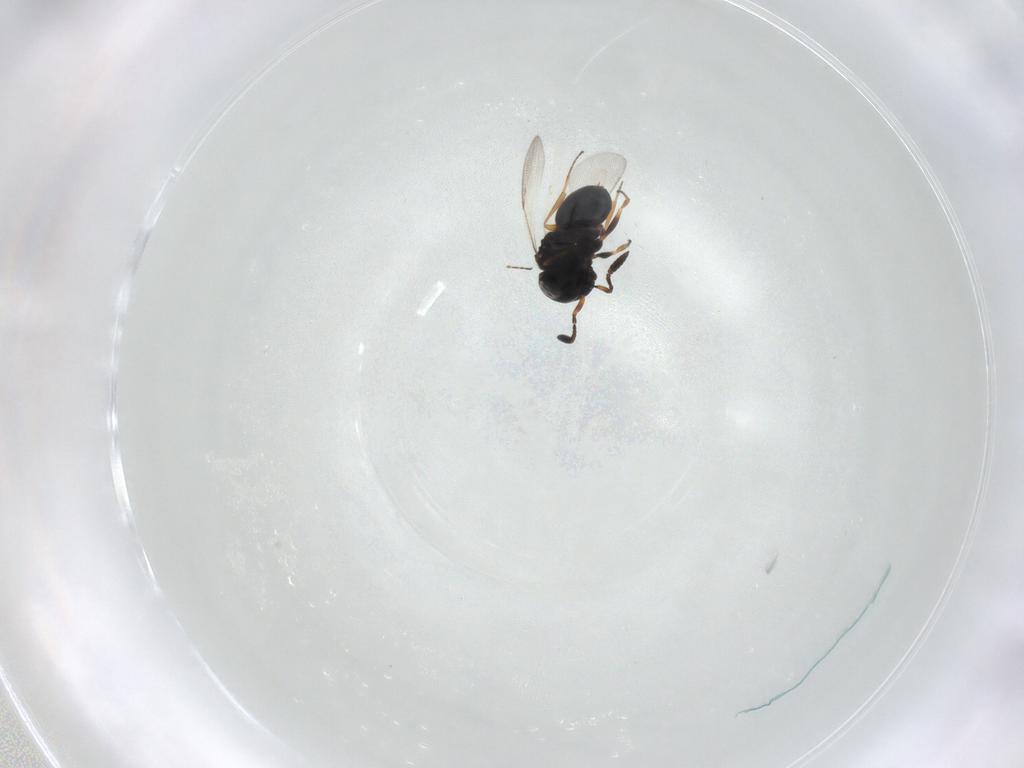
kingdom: Animalia
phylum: Arthropoda
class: Insecta
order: Hymenoptera
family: Scelionidae
